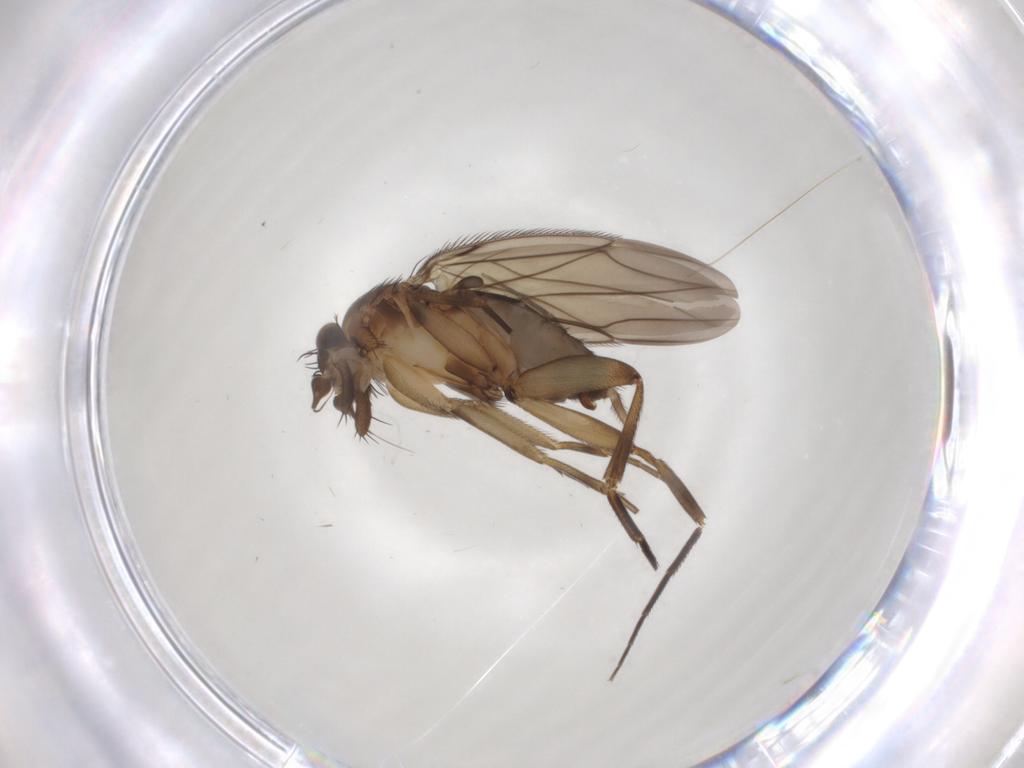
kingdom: Animalia
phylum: Arthropoda
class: Insecta
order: Diptera
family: Phoridae
